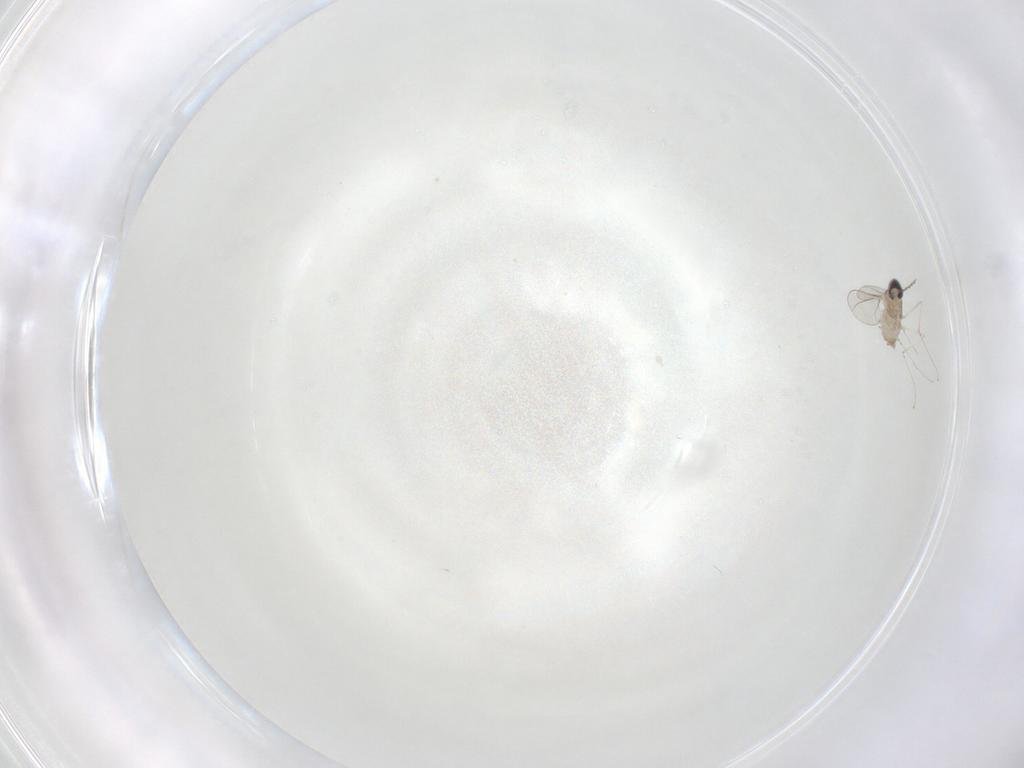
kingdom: Animalia
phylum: Arthropoda
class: Insecta
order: Diptera
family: Cecidomyiidae
